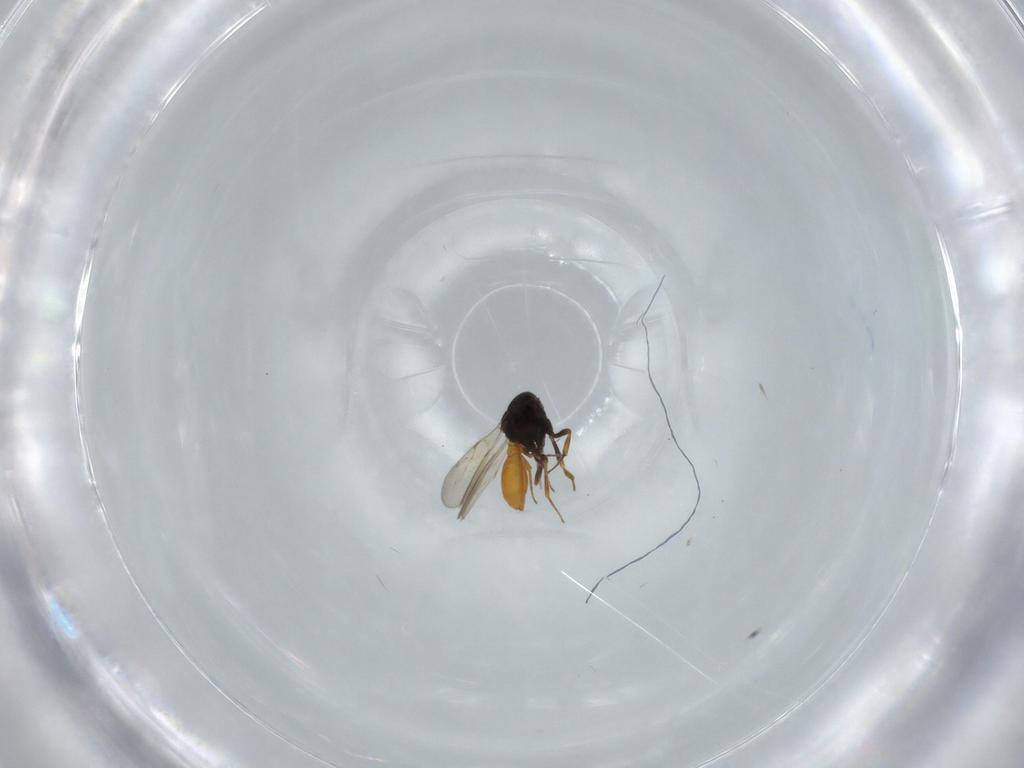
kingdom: Animalia
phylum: Arthropoda
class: Insecta
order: Hymenoptera
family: Scelionidae
